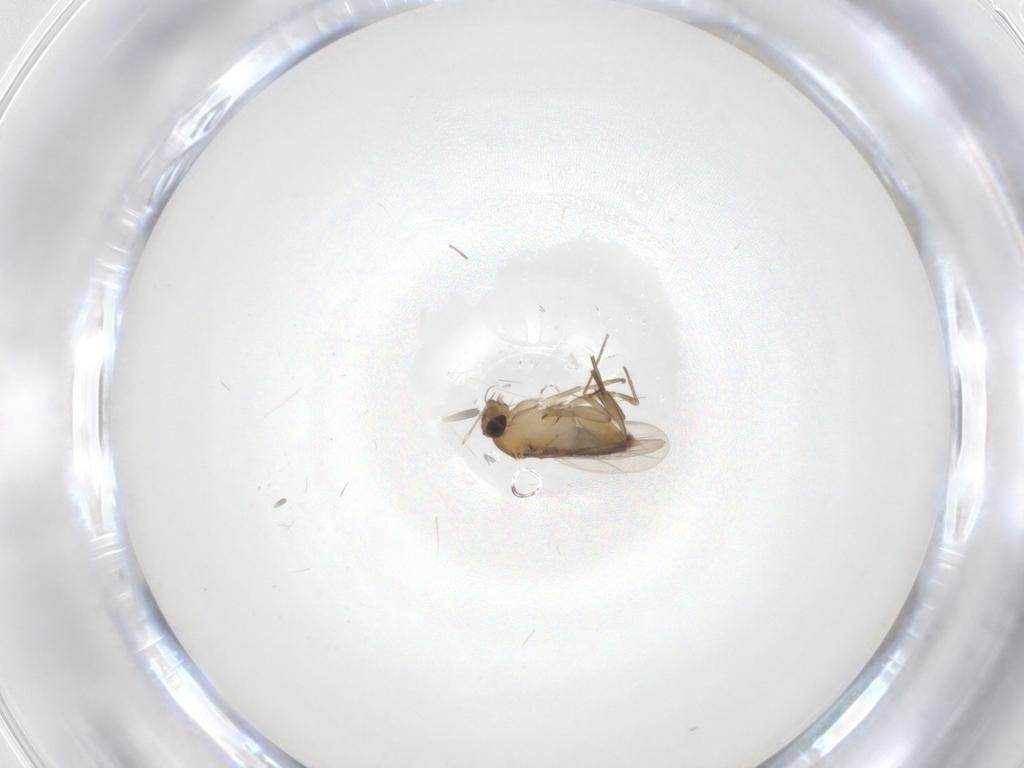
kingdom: Animalia
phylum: Arthropoda
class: Insecta
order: Diptera
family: Phoridae
